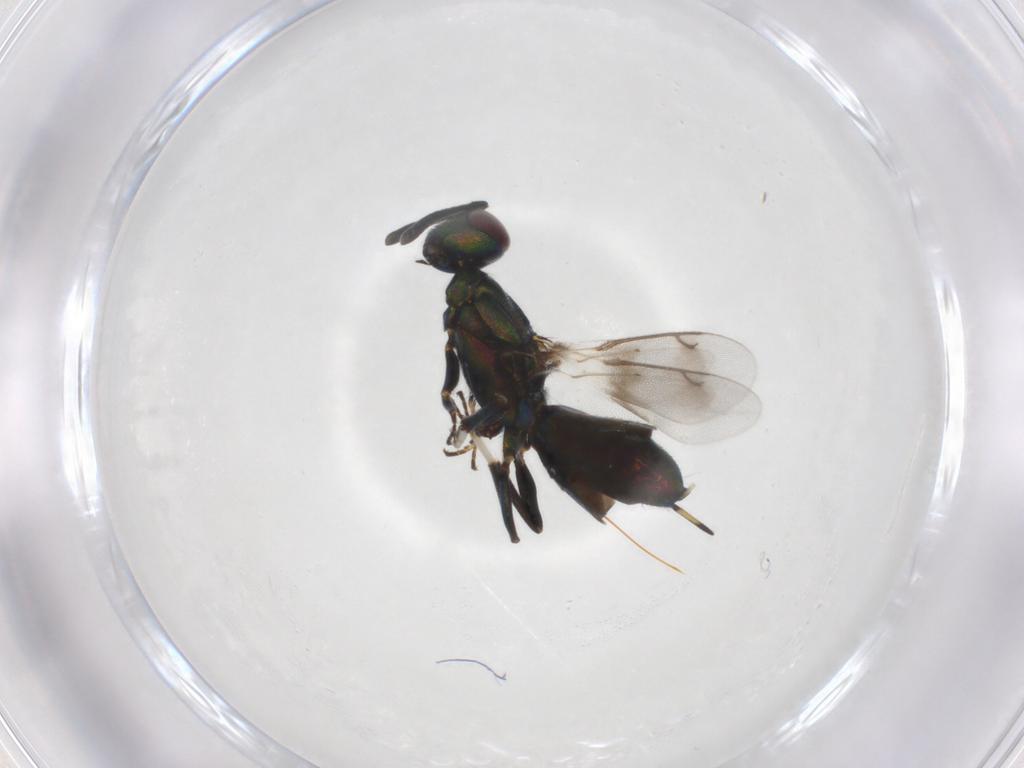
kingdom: Animalia
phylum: Arthropoda
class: Insecta
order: Hymenoptera
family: Eupelmidae
